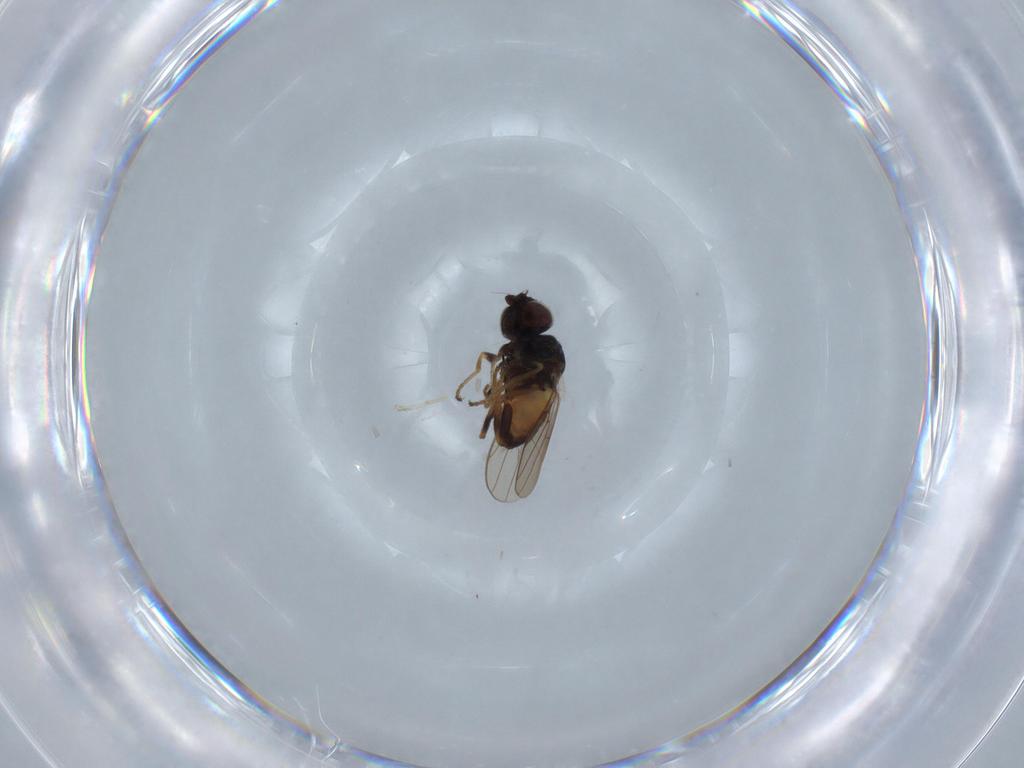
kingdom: Animalia
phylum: Arthropoda
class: Insecta
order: Diptera
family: Chloropidae
